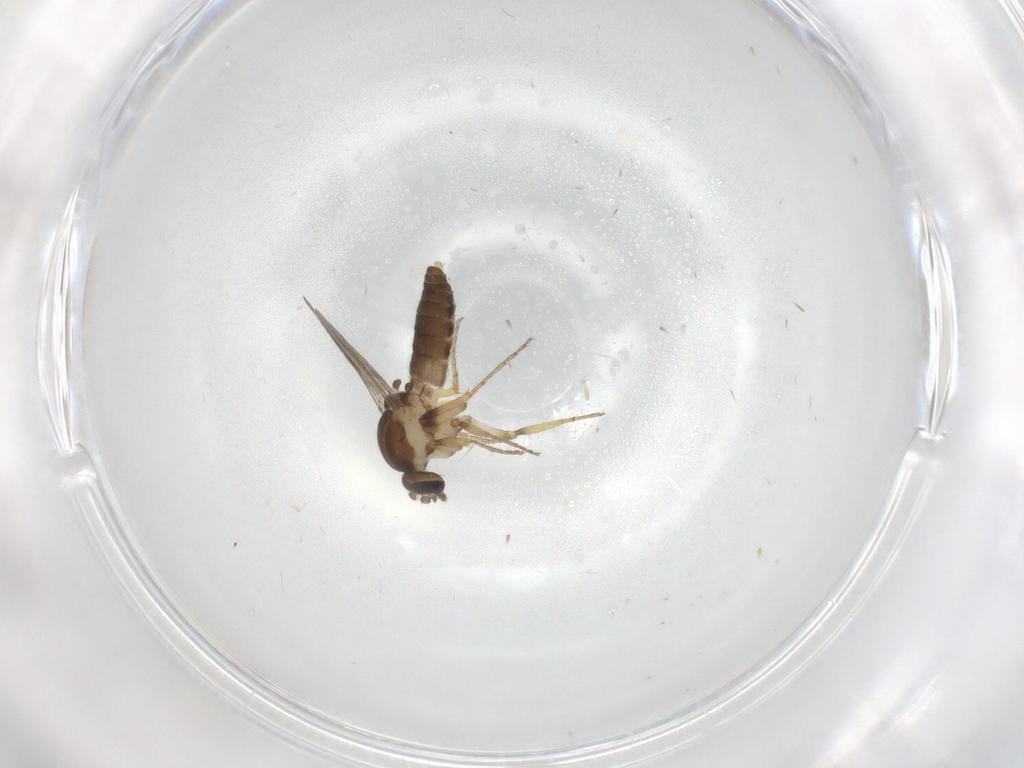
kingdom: Animalia
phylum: Arthropoda
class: Insecta
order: Diptera
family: Ceratopogonidae
